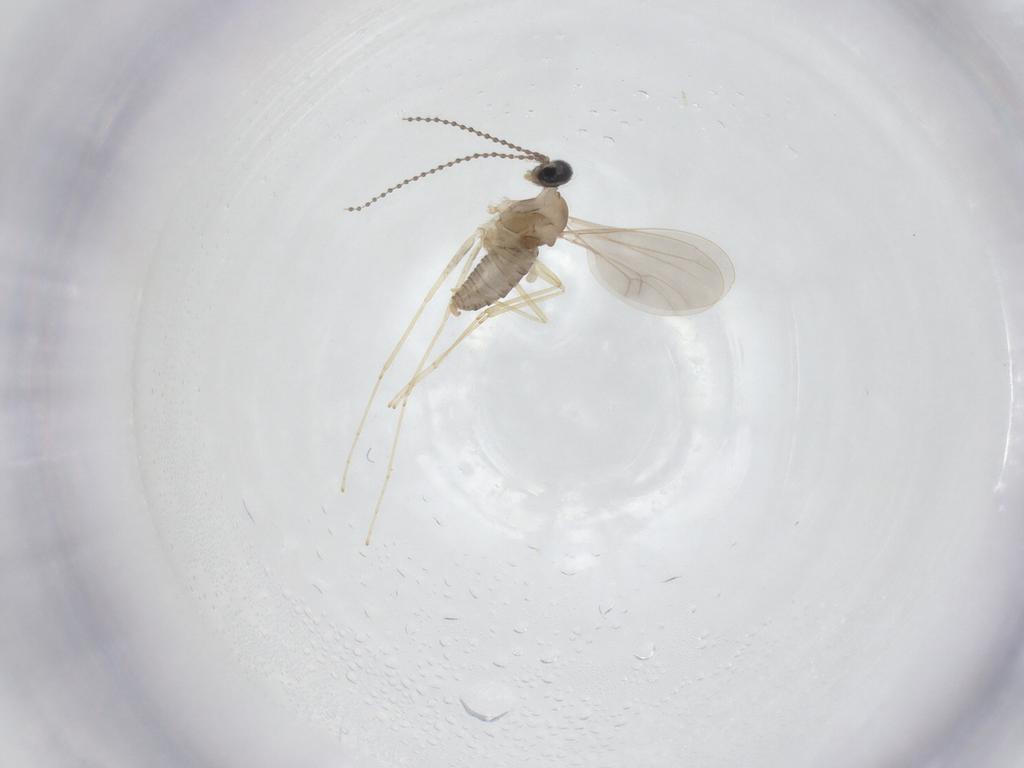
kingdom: Animalia
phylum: Arthropoda
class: Insecta
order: Diptera
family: Cecidomyiidae
